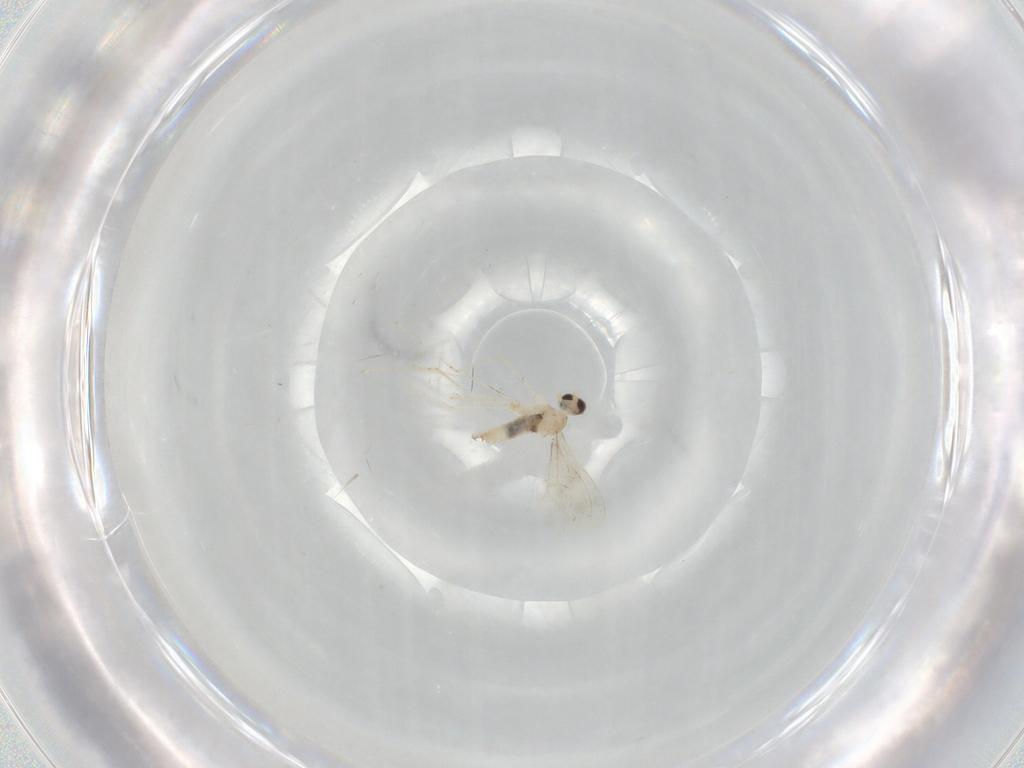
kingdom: Animalia
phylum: Arthropoda
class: Insecta
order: Diptera
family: Cecidomyiidae
